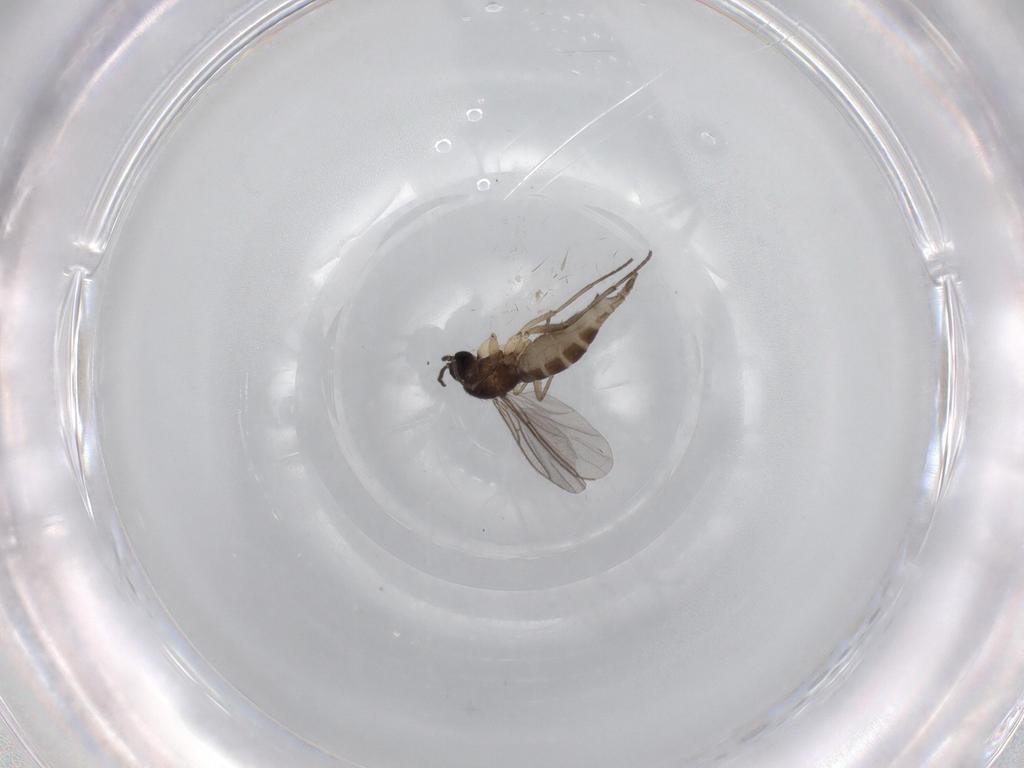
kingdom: Animalia
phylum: Arthropoda
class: Insecta
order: Diptera
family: Sciaridae
